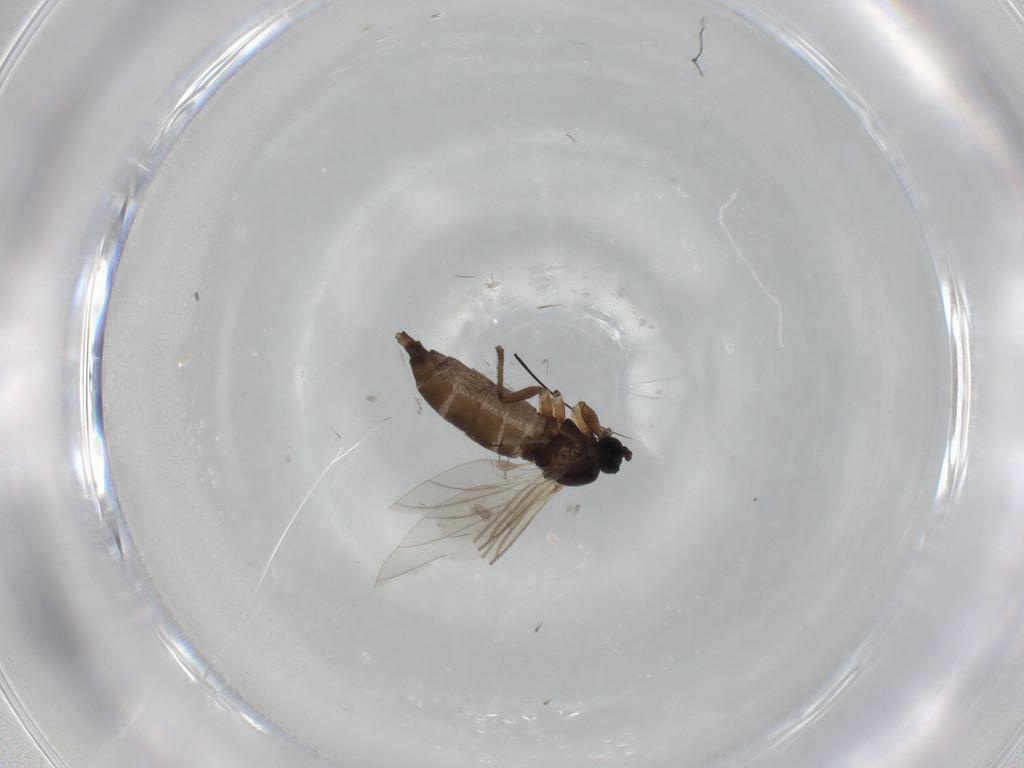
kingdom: Animalia
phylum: Arthropoda
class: Insecta
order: Diptera
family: Sciaridae
